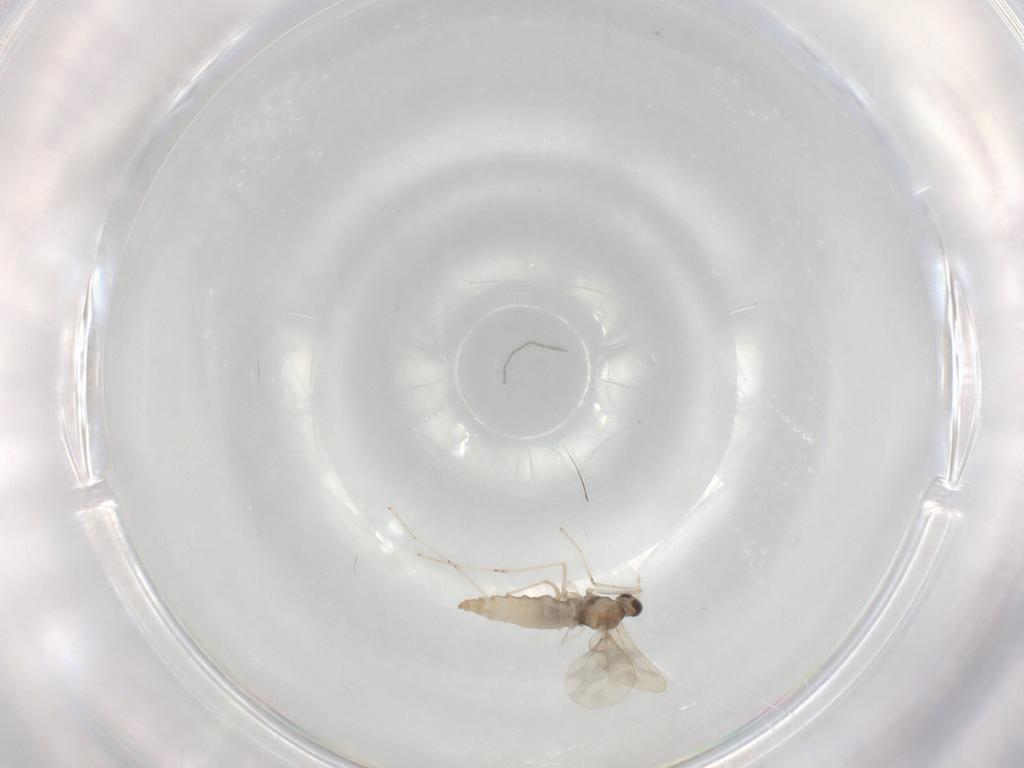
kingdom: Animalia
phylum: Arthropoda
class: Insecta
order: Diptera
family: Cecidomyiidae
